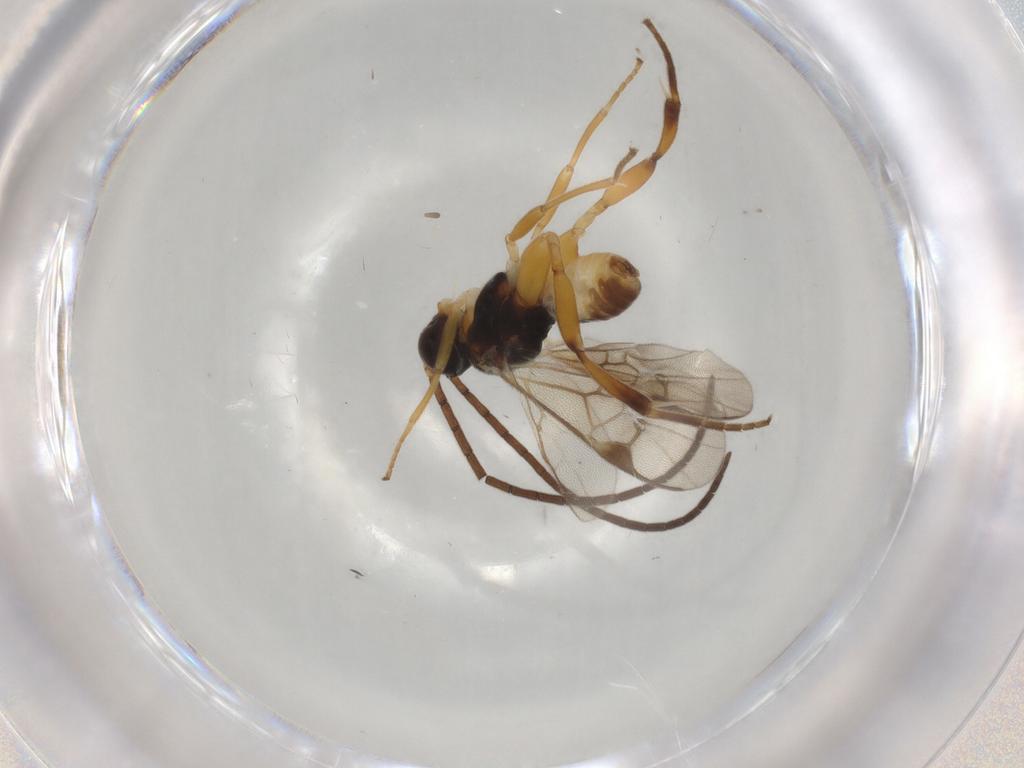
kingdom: Animalia
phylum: Arthropoda
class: Insecta
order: Hymenoptera
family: Braconidae
